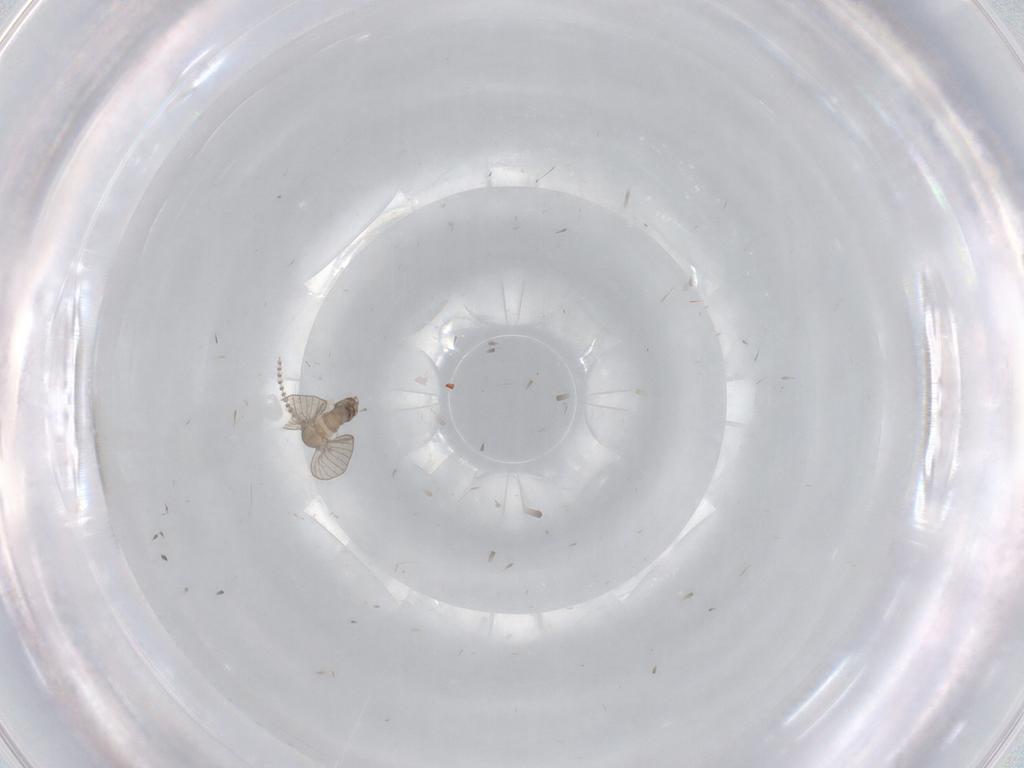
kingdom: Animalia
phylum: Arthropoda
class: Insecta
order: Diptera
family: Psychodidae
